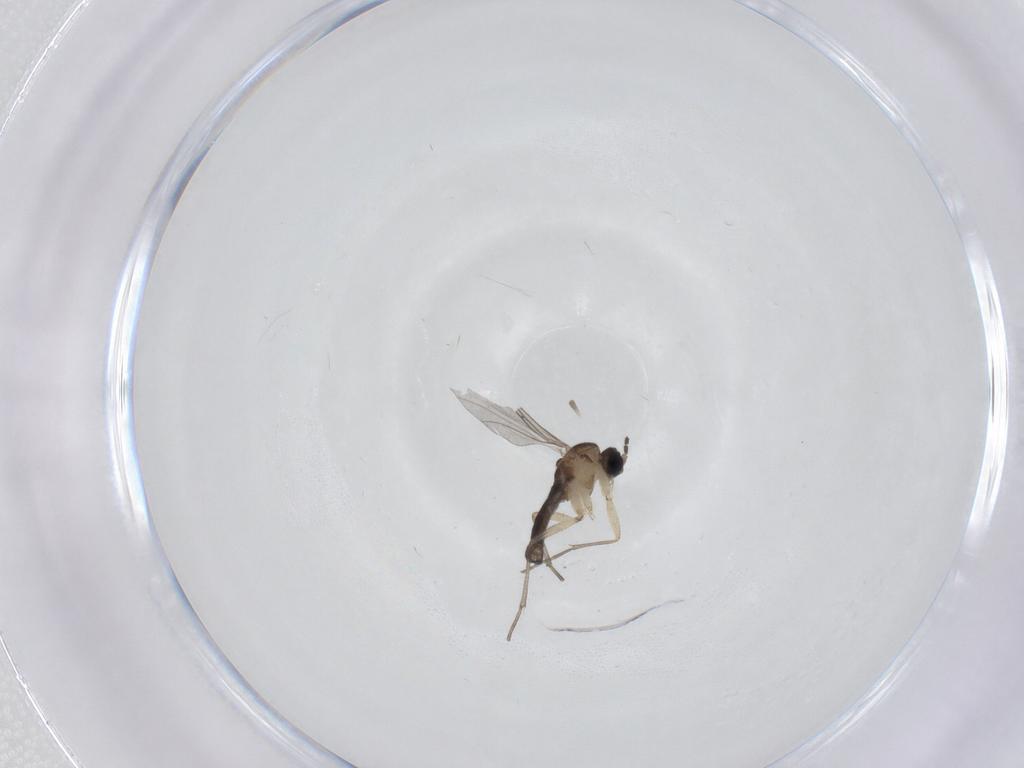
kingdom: Animalia
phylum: Arthropoda
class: Insecta
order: Diptera
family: Sciaridae
